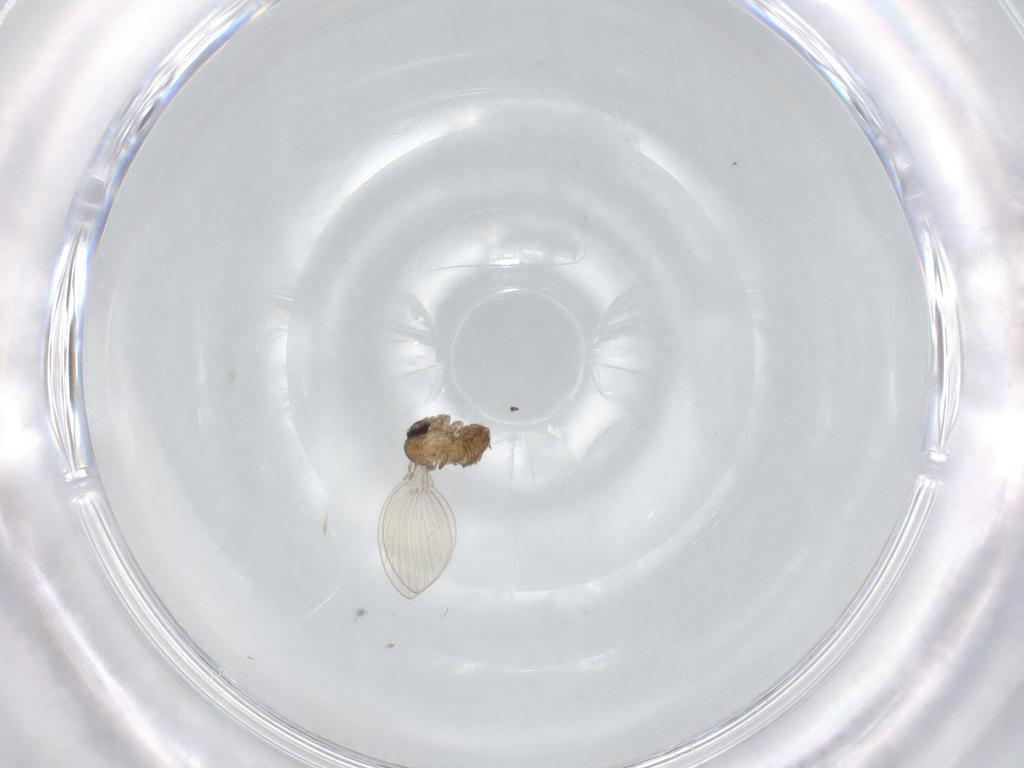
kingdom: Animalia
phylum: Arthropoda
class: Insecta
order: Diptera
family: Psychodidae
